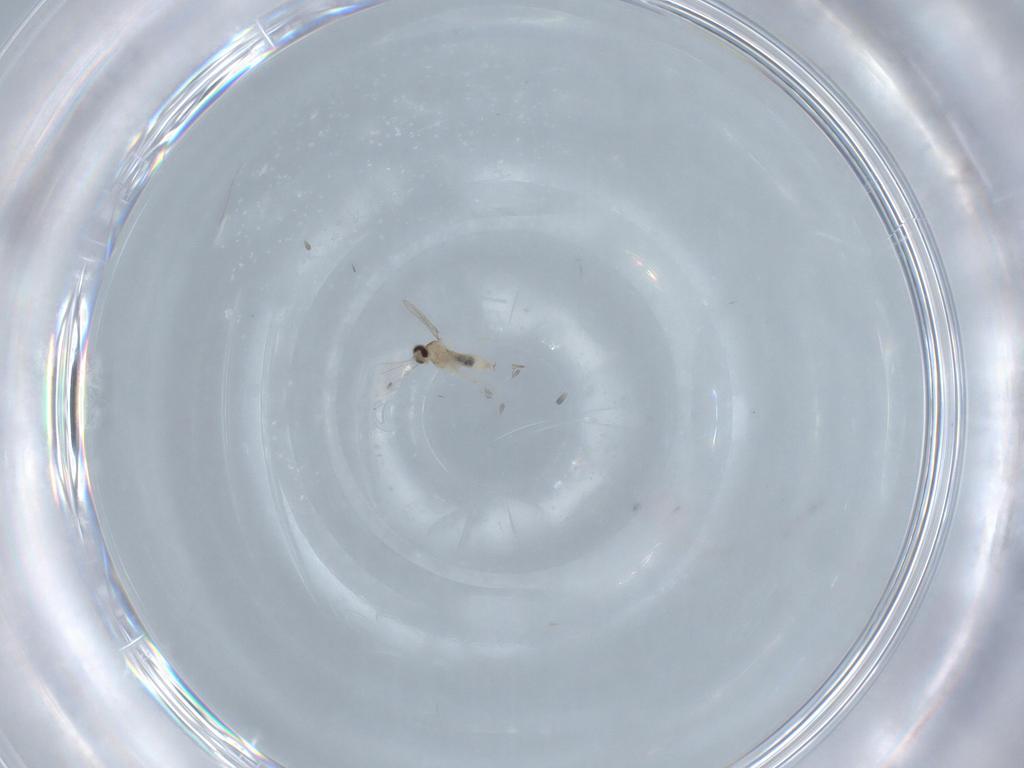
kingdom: Animalia
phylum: Arthropoda
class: Insecta
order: Diptera
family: Cecidomyiidae
